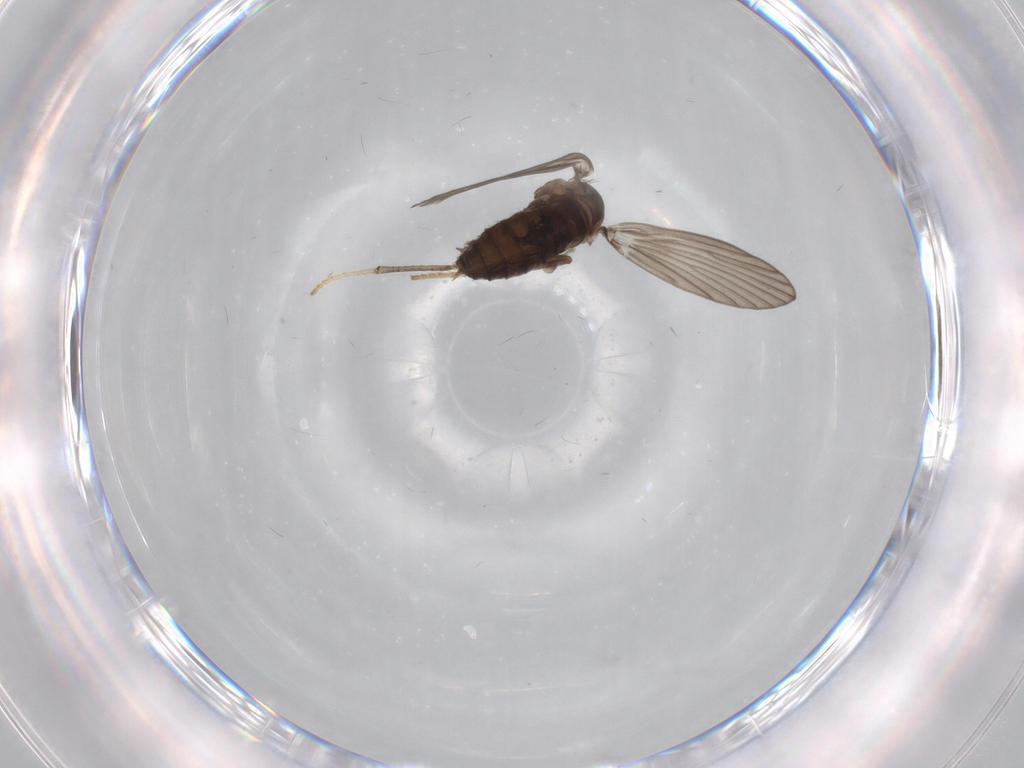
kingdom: Animalia
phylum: Arthropoda
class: Insecta
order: Diptera
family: Psychodidae
